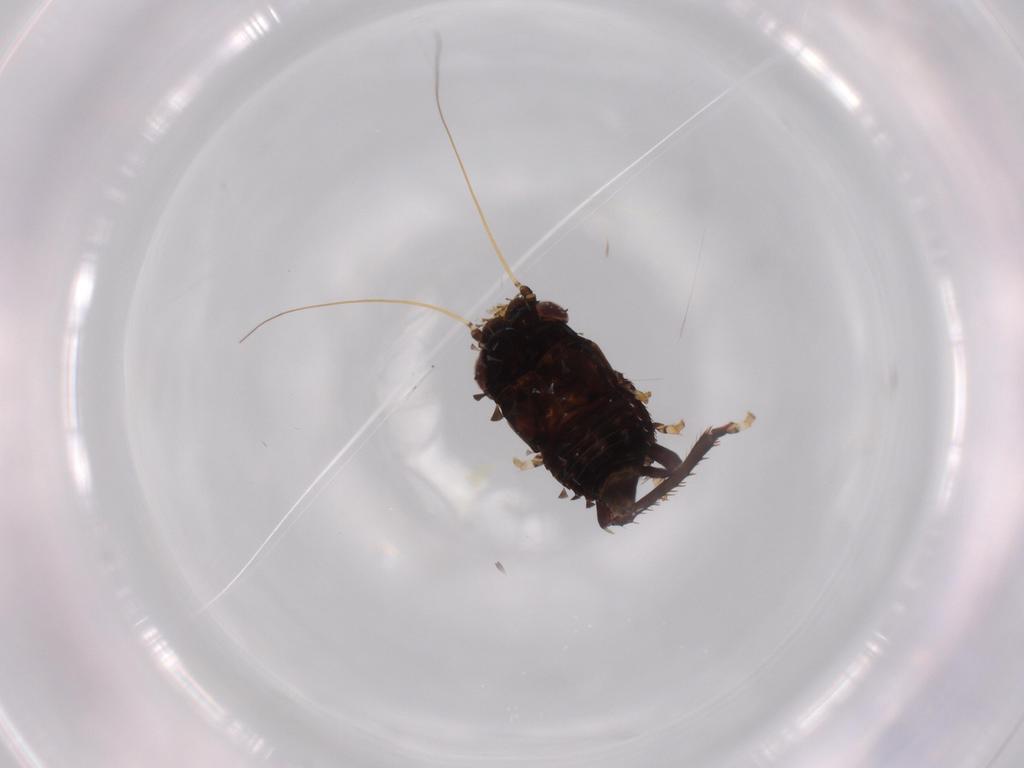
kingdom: Animalia
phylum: Arthropoda
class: Insecta
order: Hemiptera
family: Cicadellidae
